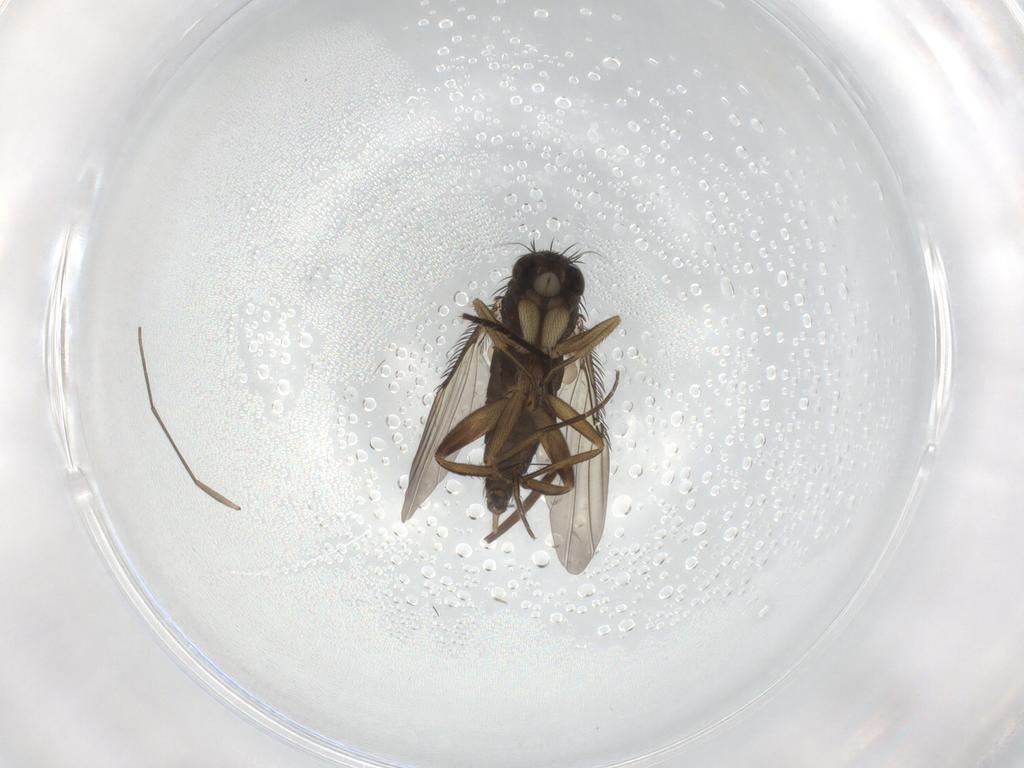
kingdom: Animalia
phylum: Arthropoda
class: Insecta
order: Diptera
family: Phoridae
